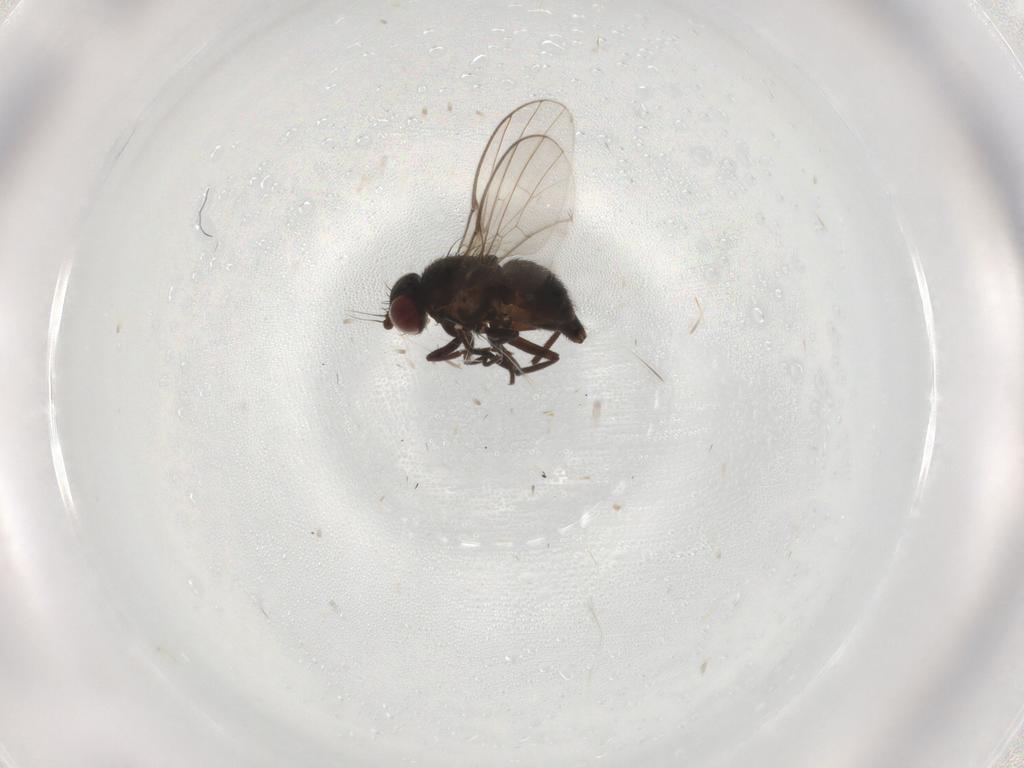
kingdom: Animalia
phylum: Arthropoda
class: Insecta
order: Diptera
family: Agromyzidae
